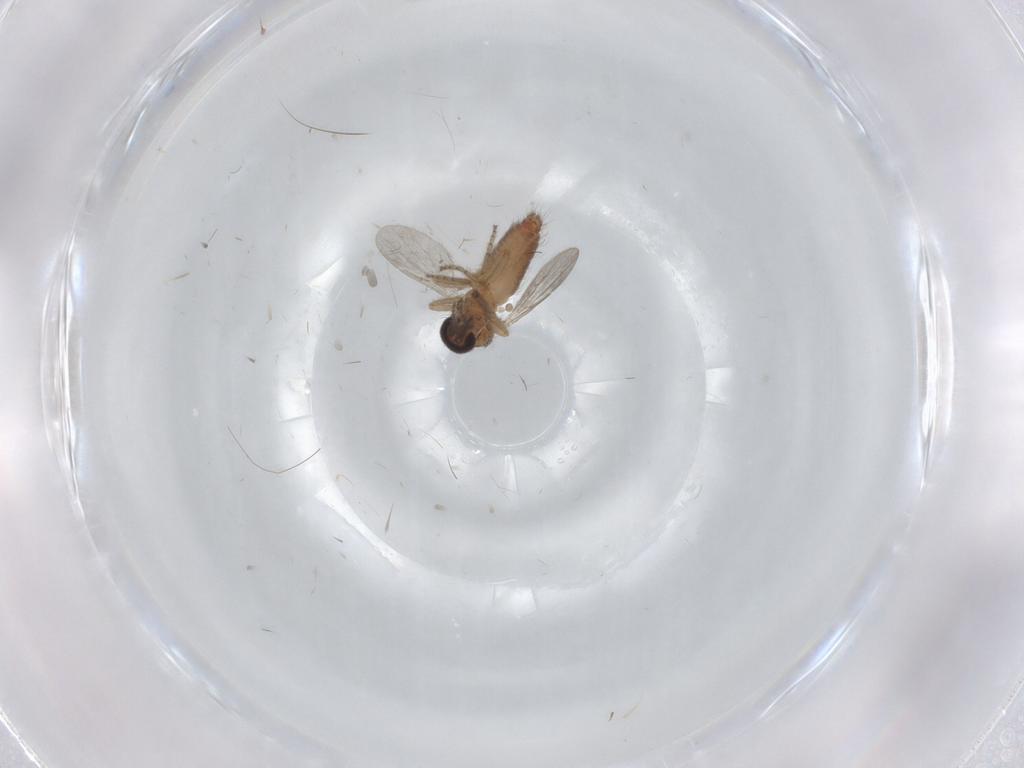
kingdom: Animalia
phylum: Arthropoda
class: Insecta
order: Diptera
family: Ceratopogonidae
